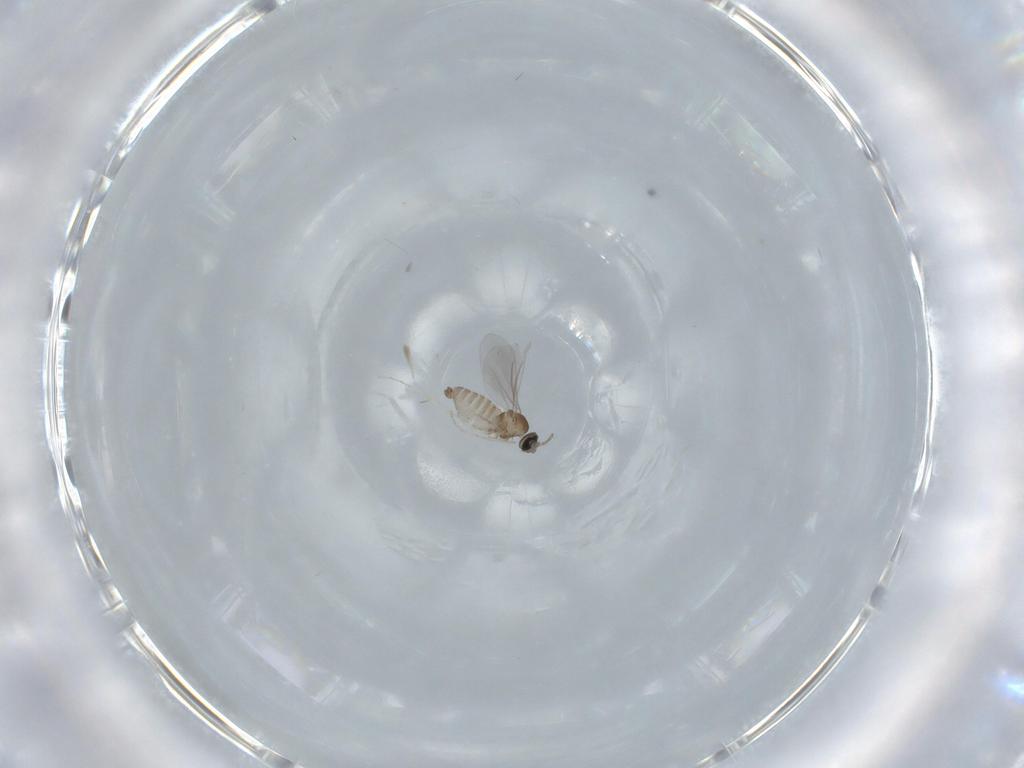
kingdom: Animalia
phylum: Arthropoda
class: Insecta
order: Diptera
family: Cecidomyiidae
